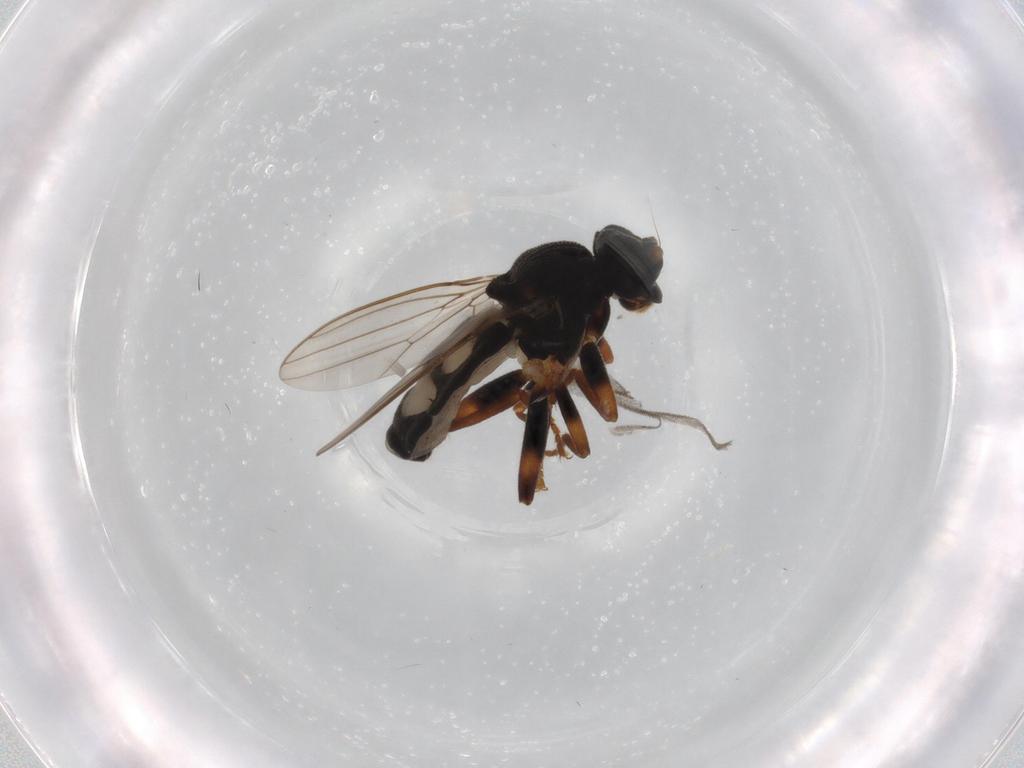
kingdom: Animalia
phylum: Arthropoda
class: Insecta
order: Diptera
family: Sphaeroceridae
